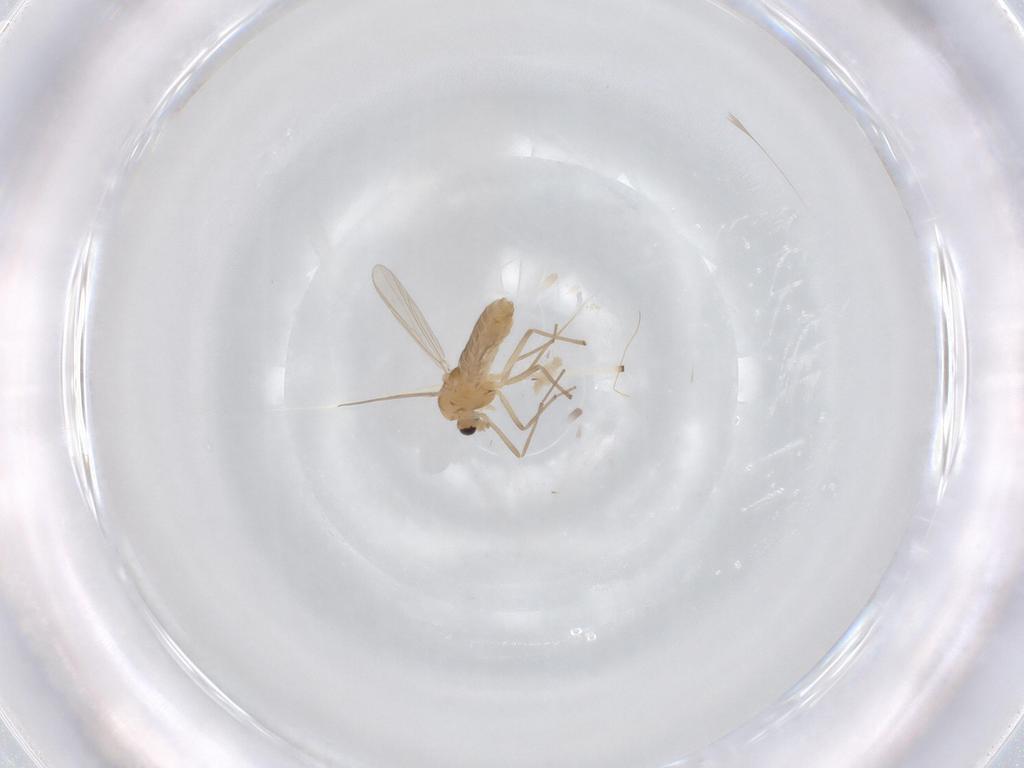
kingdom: Animalia
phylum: Arthropoda
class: Insecta
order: Diptera
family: Chironomidae
